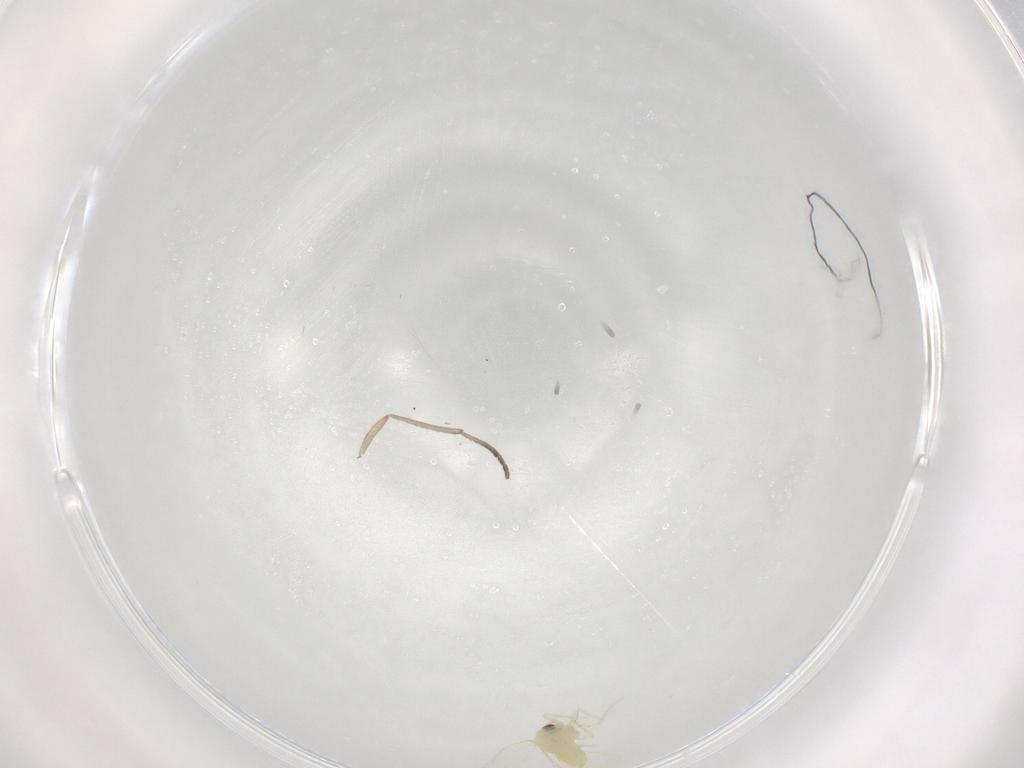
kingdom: Animalia
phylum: Arthropoda
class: Insecta
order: Hemiptera
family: Aleyrodidae
